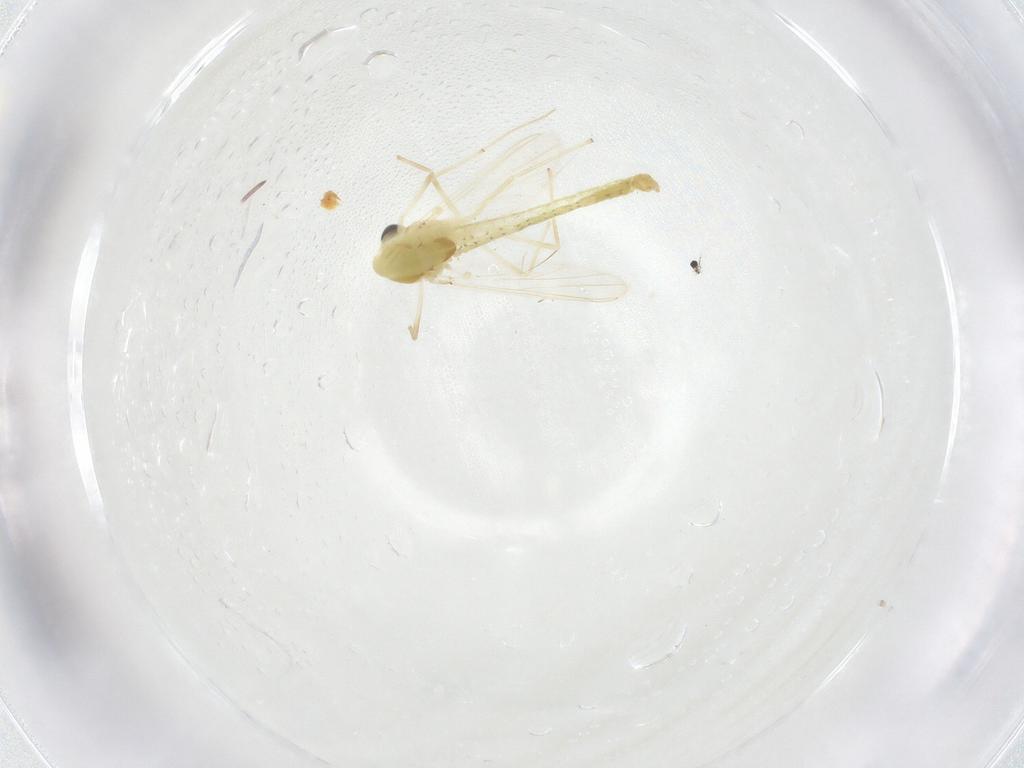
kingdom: Animalia
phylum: Arthropoda
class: Insecta
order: Diptera
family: Chironomidae
